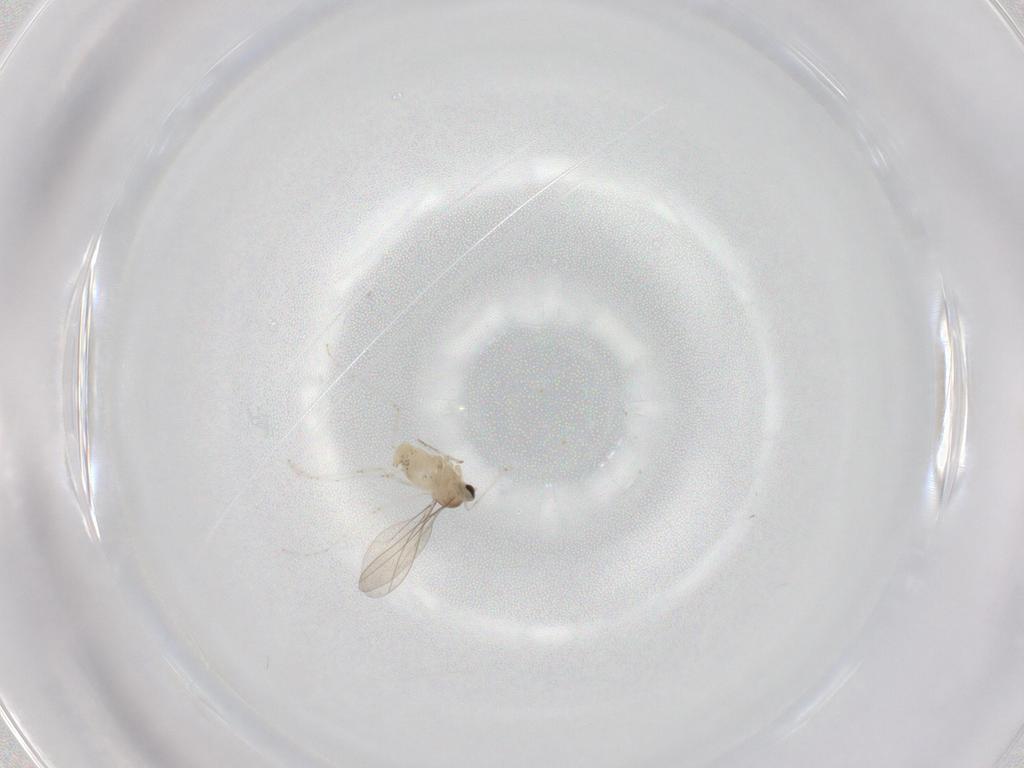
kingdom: Animalia
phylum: Arthropoda
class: Insecta
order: Diptera
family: Cecidomyiidae
